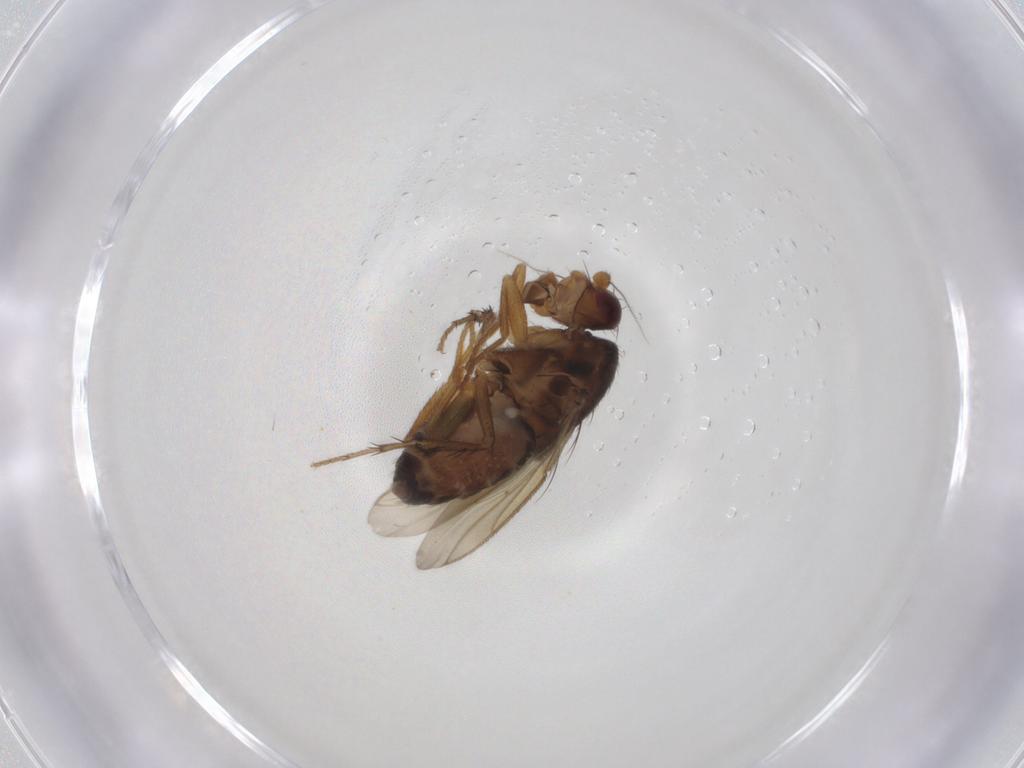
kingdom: Animalia
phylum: Arthropoda
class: Insecta
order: Diptera
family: Sphaeroceridae
